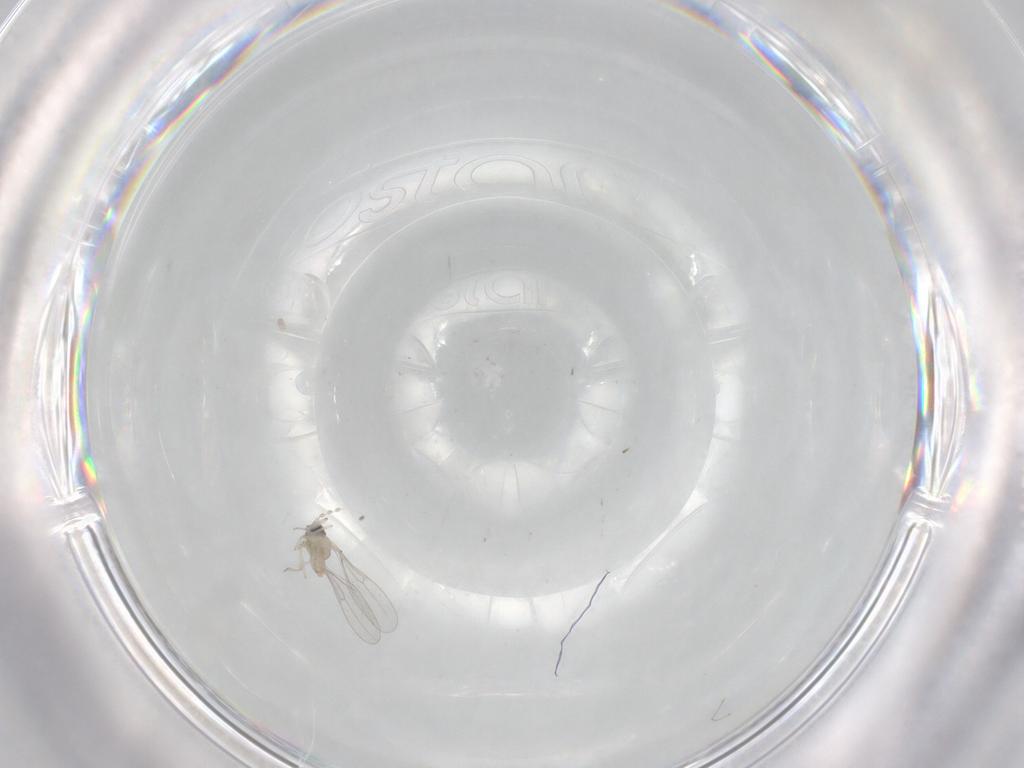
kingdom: Animalia
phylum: Arthropoda
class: Insecta
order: Diptera
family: Cecidomyiidae
